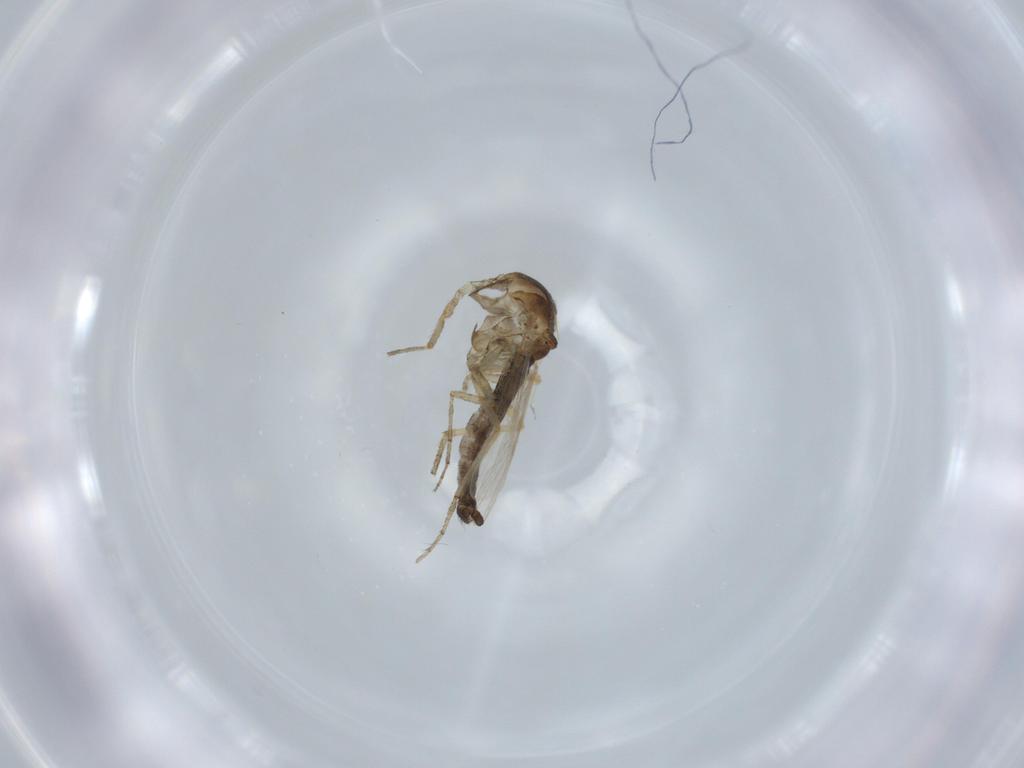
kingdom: Animalia
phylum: Arthropoda
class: Insecta
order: Diptera
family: Ceratopogonidae
